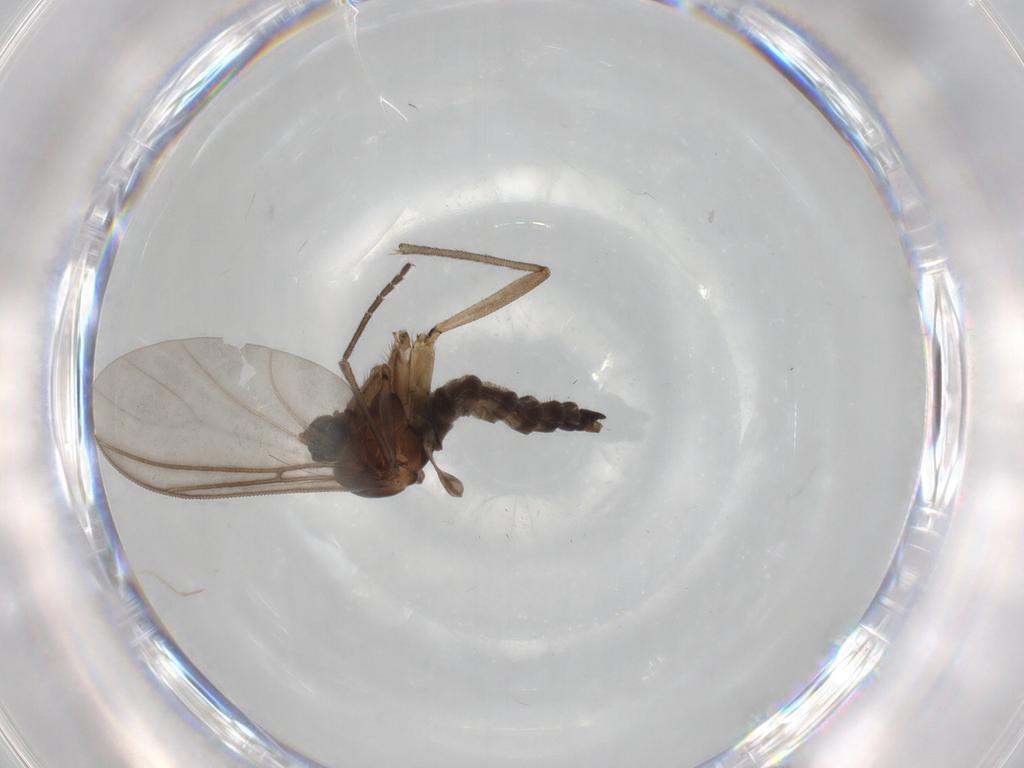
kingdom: Animalia
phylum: Arthropoda
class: Insecta
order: Diptera
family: Sciaridae
